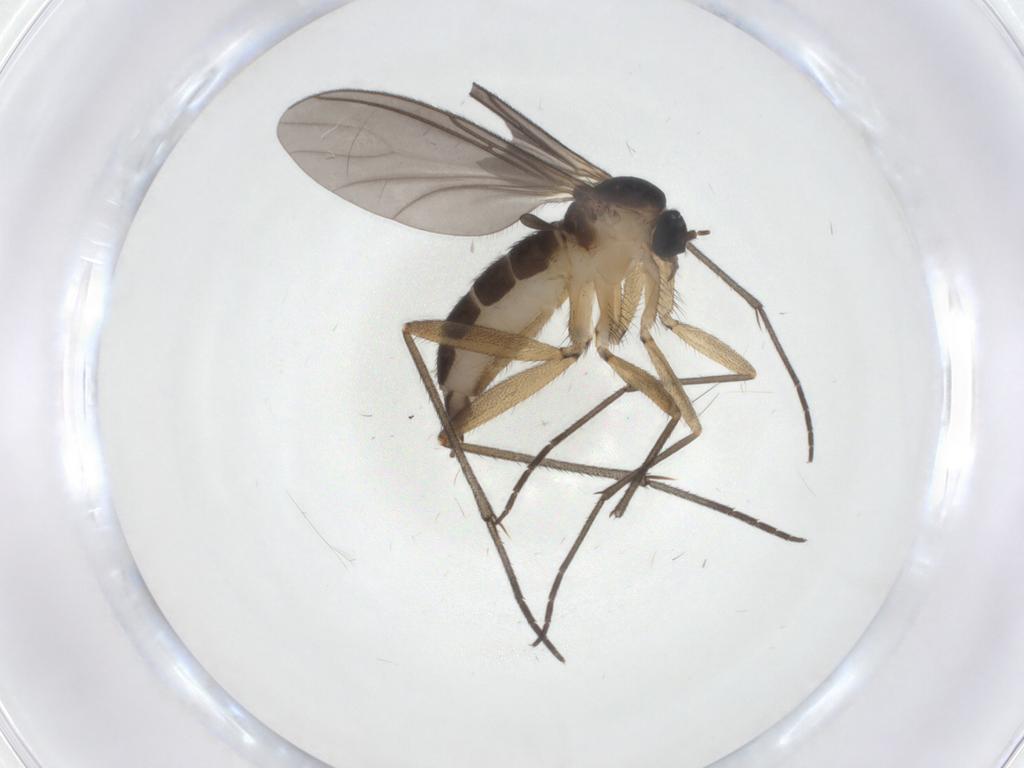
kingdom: Animalia
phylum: Arthropoda
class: Insecta
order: Diptera
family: Sciaridae
